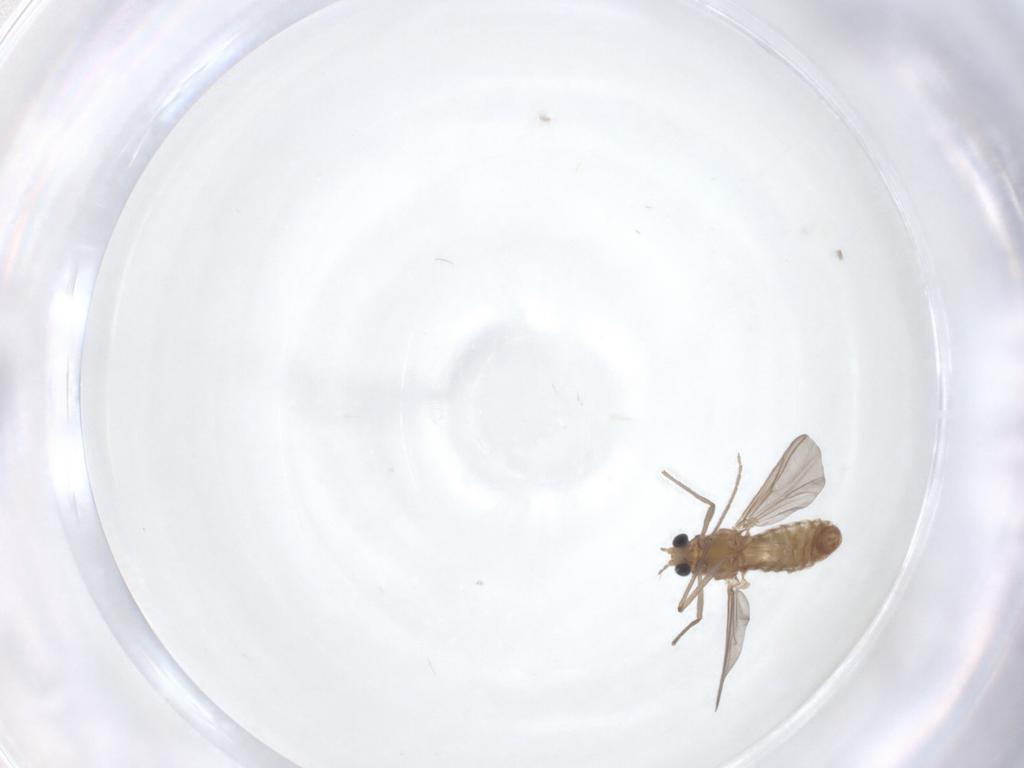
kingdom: Animalia
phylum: Arthropoda
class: Insecta
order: Diptera
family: Chironomidae
